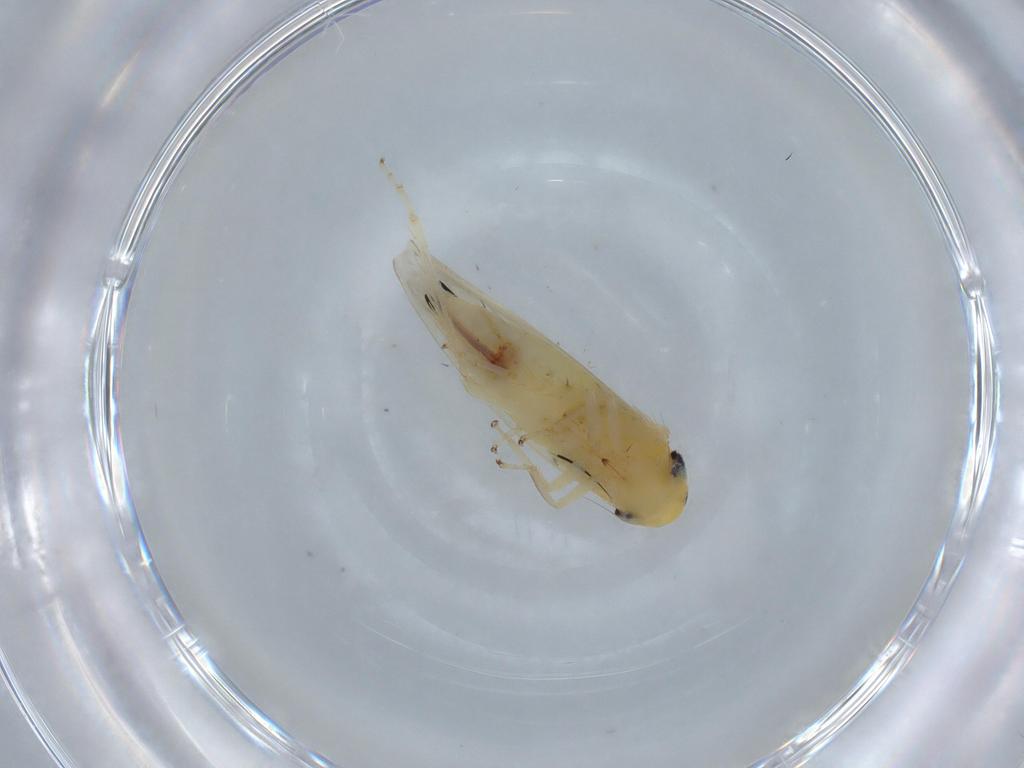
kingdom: Animalia
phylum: Arthropoda
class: Insecta
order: Hemiptera
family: Cicadellidae
